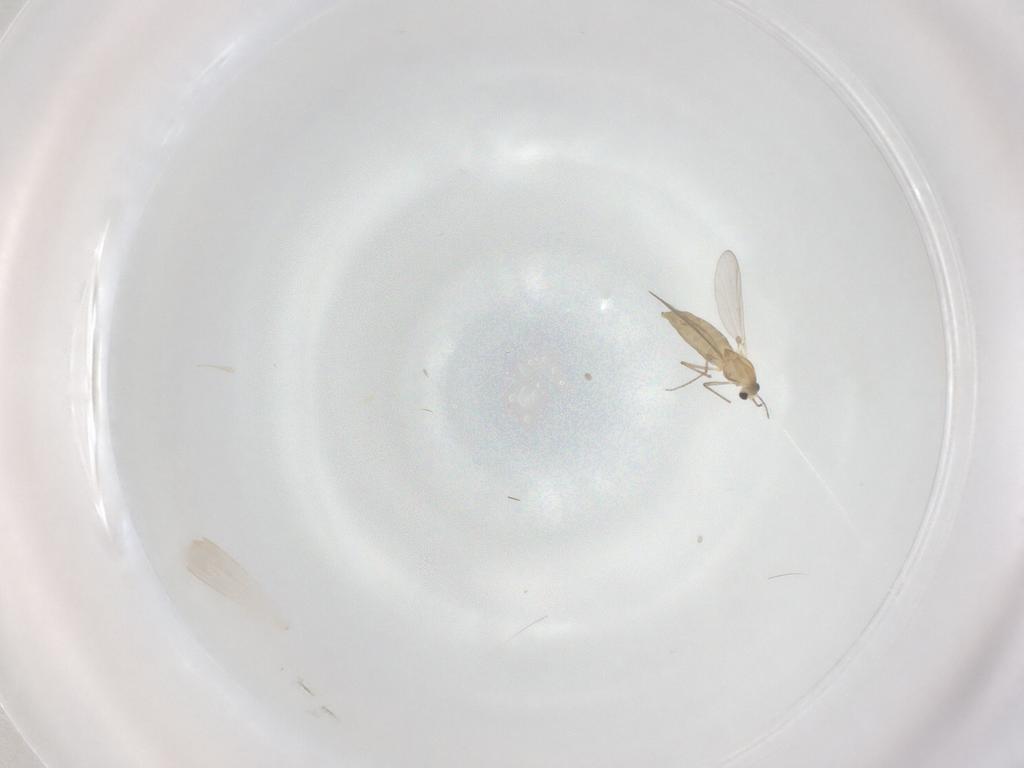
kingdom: Animalia
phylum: Arthropoda
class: Insecta
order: Diptera
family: Chironomidae
